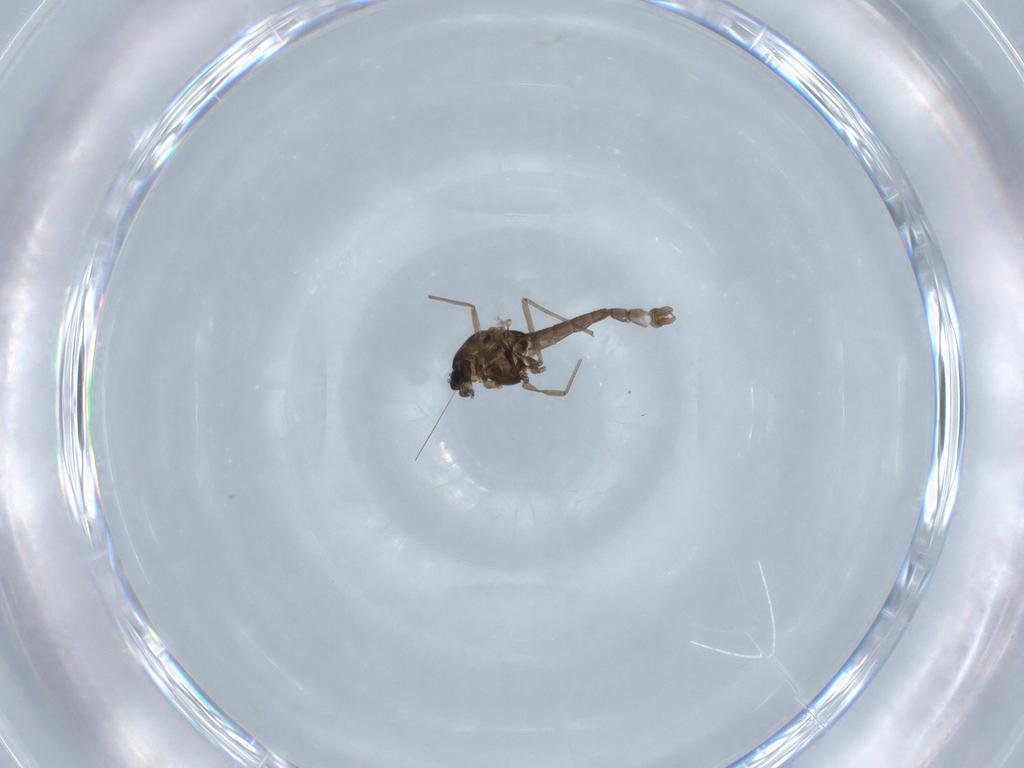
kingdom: Animalia
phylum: Arthropoda
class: Insecta
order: Diptera
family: Chironomidae
